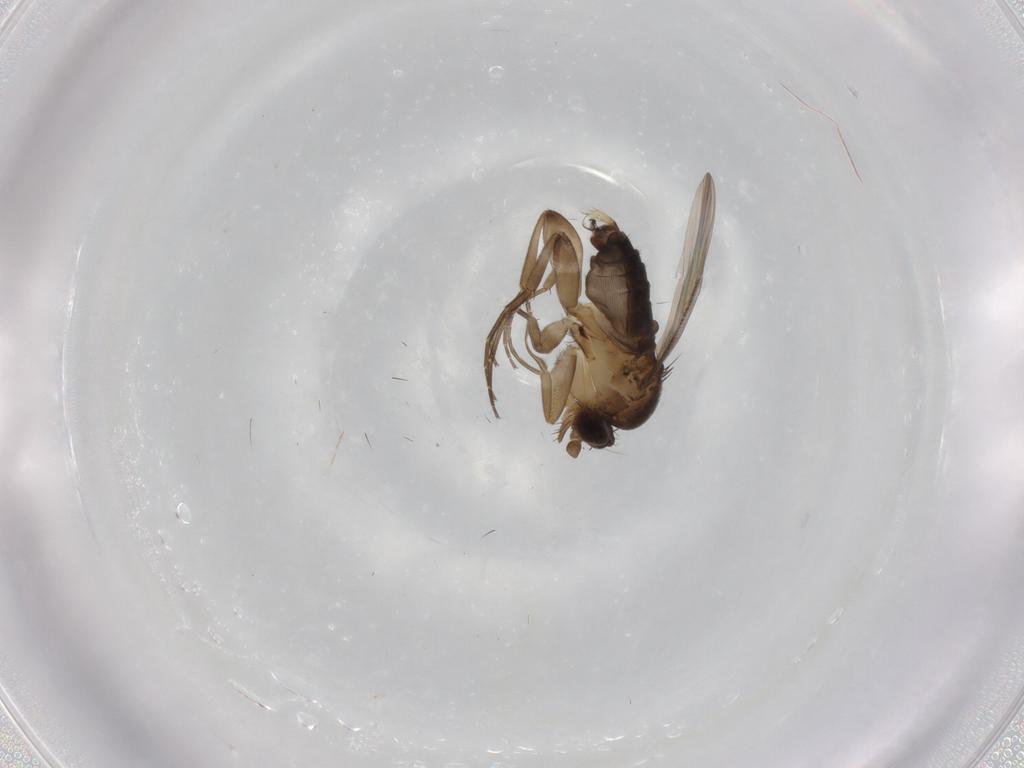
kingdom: Animalia
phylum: Arthropoda
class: Insecta
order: Diptera
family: Phoridae
